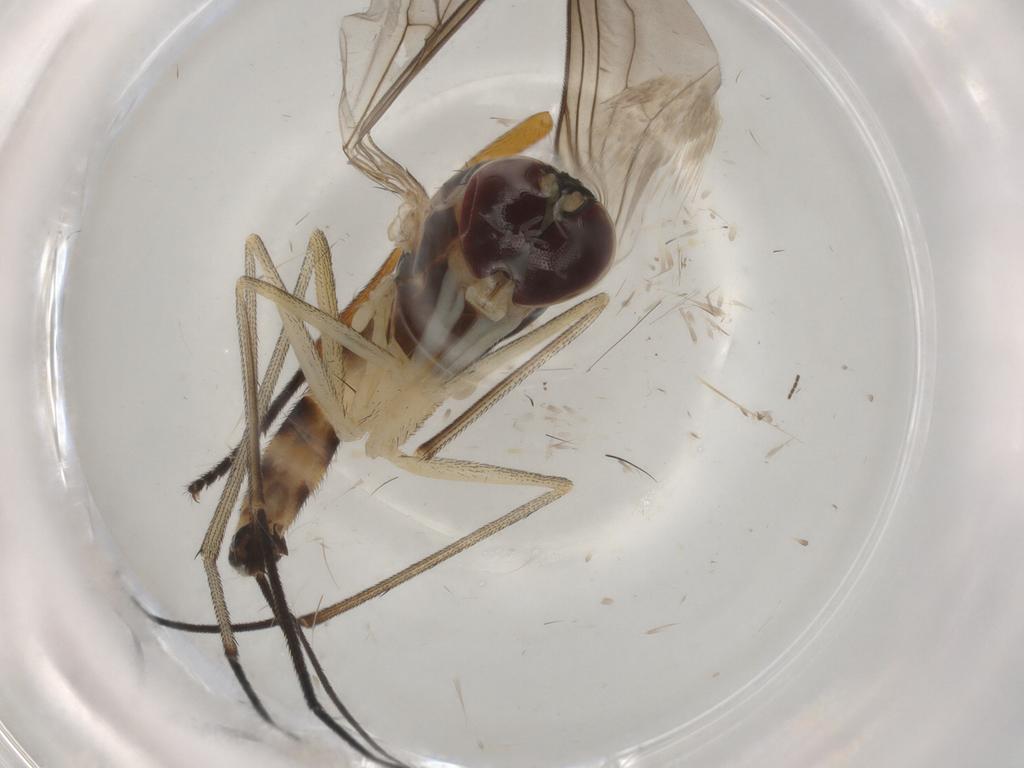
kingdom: Animalia
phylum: Arthropoda
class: Insecta
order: Diptera
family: Anthomyiidae
